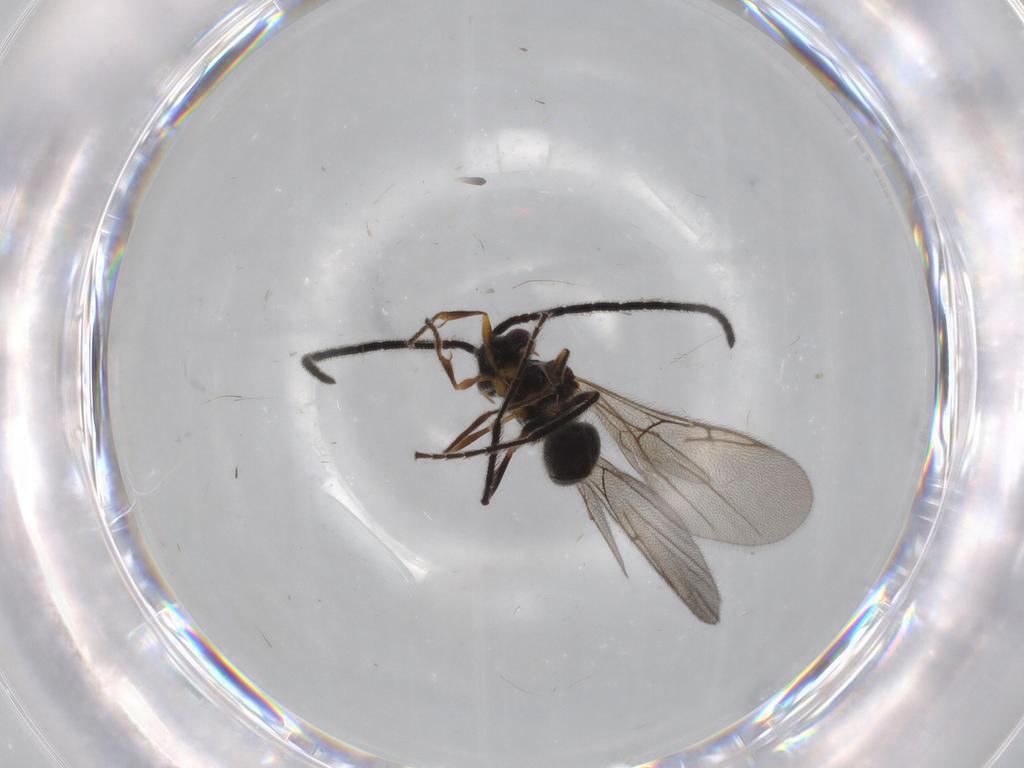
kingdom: Animalia
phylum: Arthropoda
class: Insecta
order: Hymenoptera
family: Diapriidae
